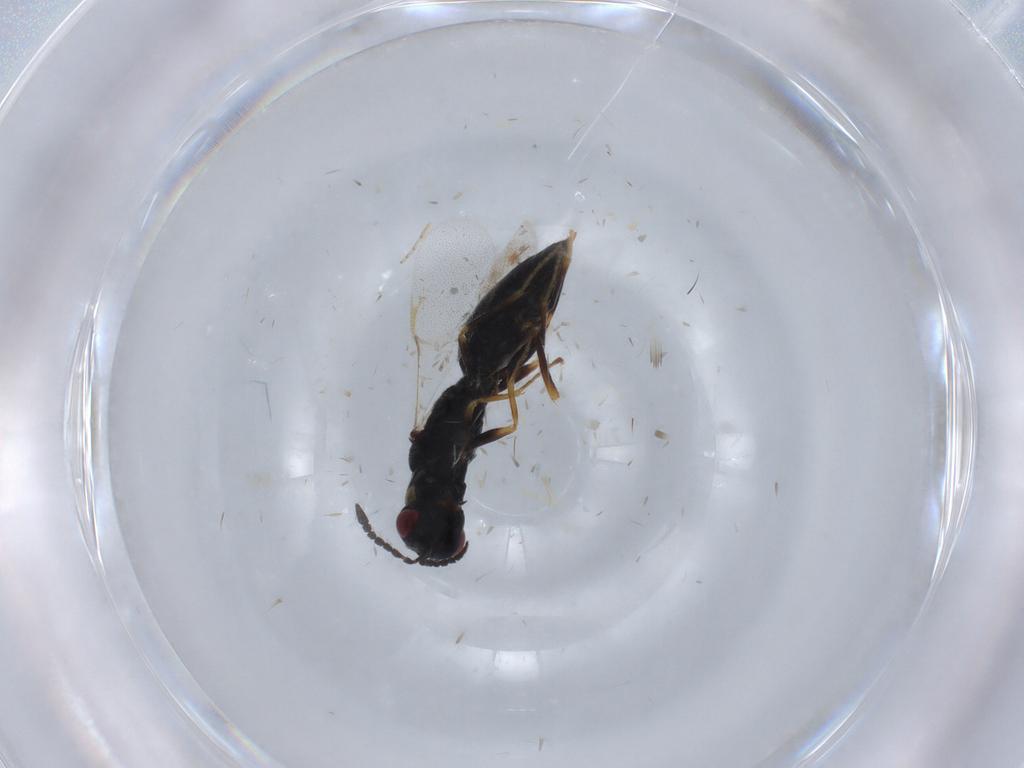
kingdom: Animalia
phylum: Arthropoda
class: Insecta
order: Hymenoptera
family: Eurytomidae
